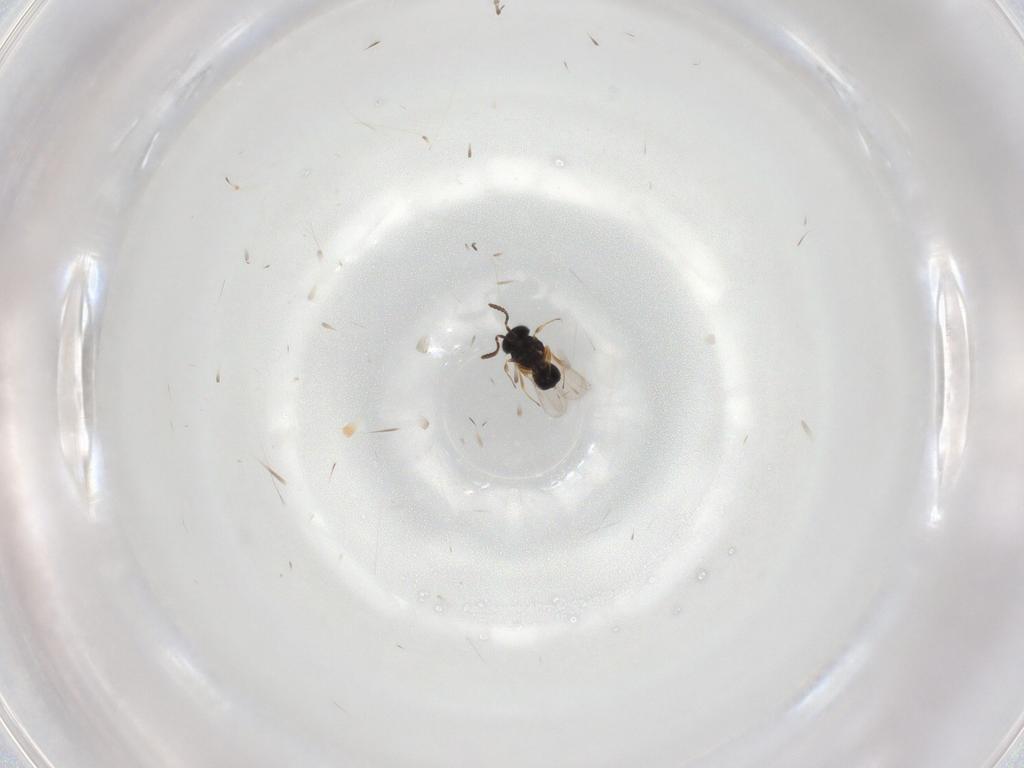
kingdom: Animalia
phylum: Arthropoda
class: Insecta
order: Hymenoptera
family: Scelionidae
